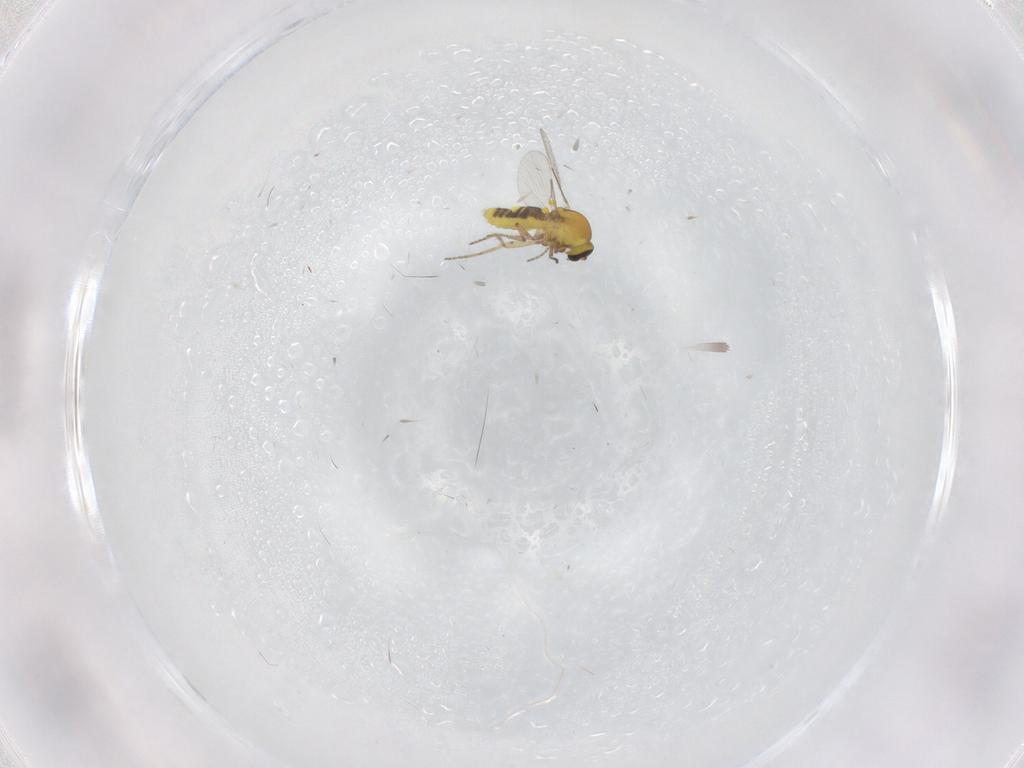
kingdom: Animalia
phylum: Arthropoda
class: Insecta
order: Diptera
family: Ceratopogonidae
